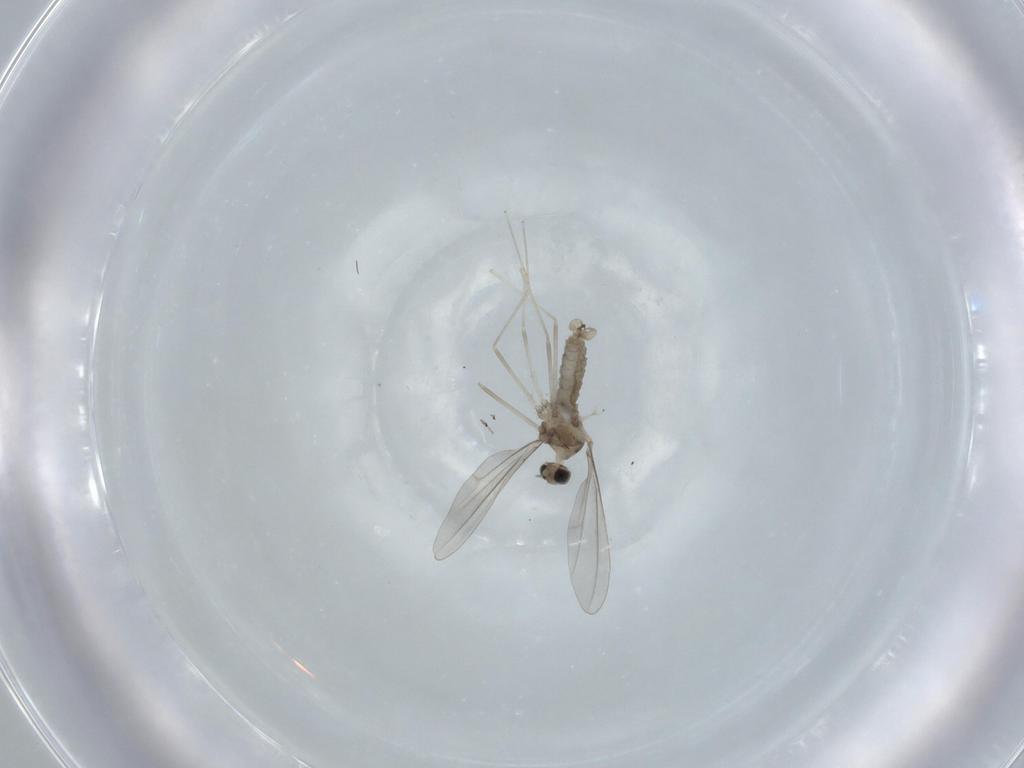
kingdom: Animalia
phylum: Arthropoda
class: Insecta
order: Diptera
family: Cecidomyiidae
